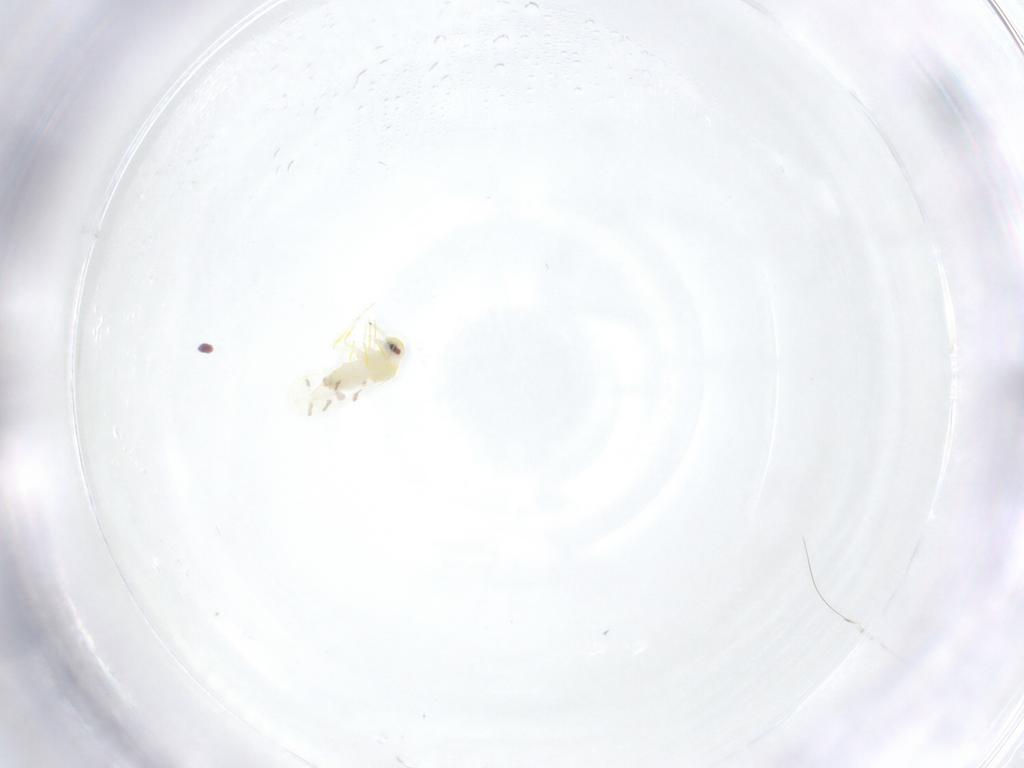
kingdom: Animalia
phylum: Arthropoda
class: Insecta
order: Hemiptera
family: Aleyrodidae
